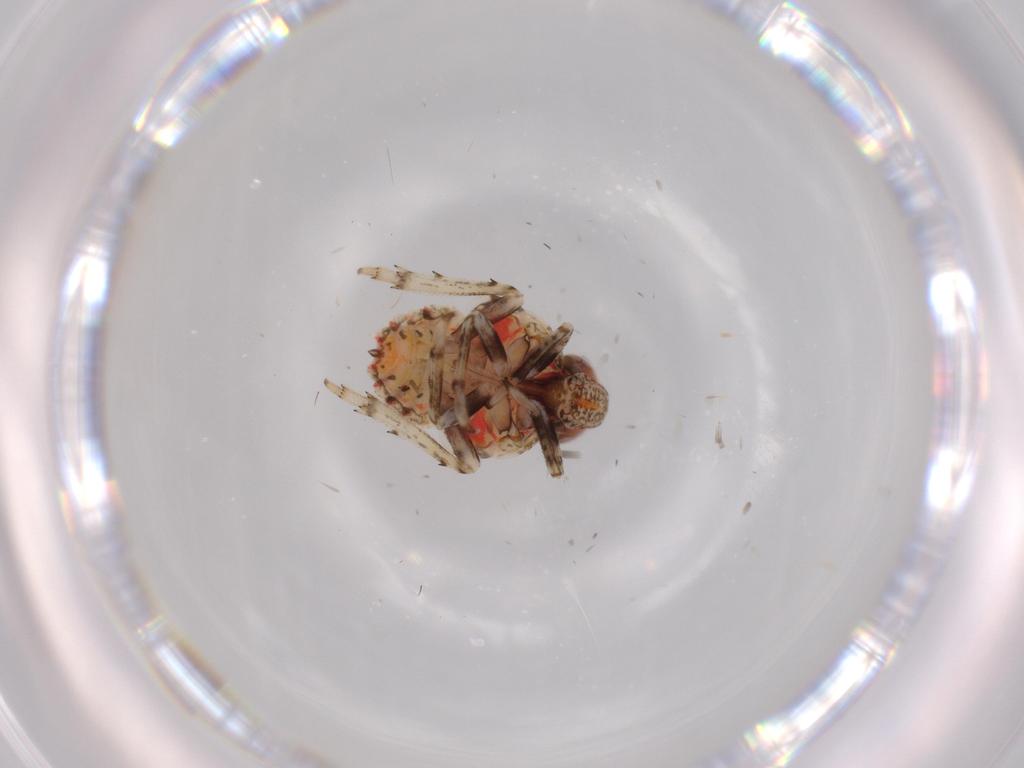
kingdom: Animalia
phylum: Arthropoda
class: Insecta
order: Hemiptera
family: Issidae
